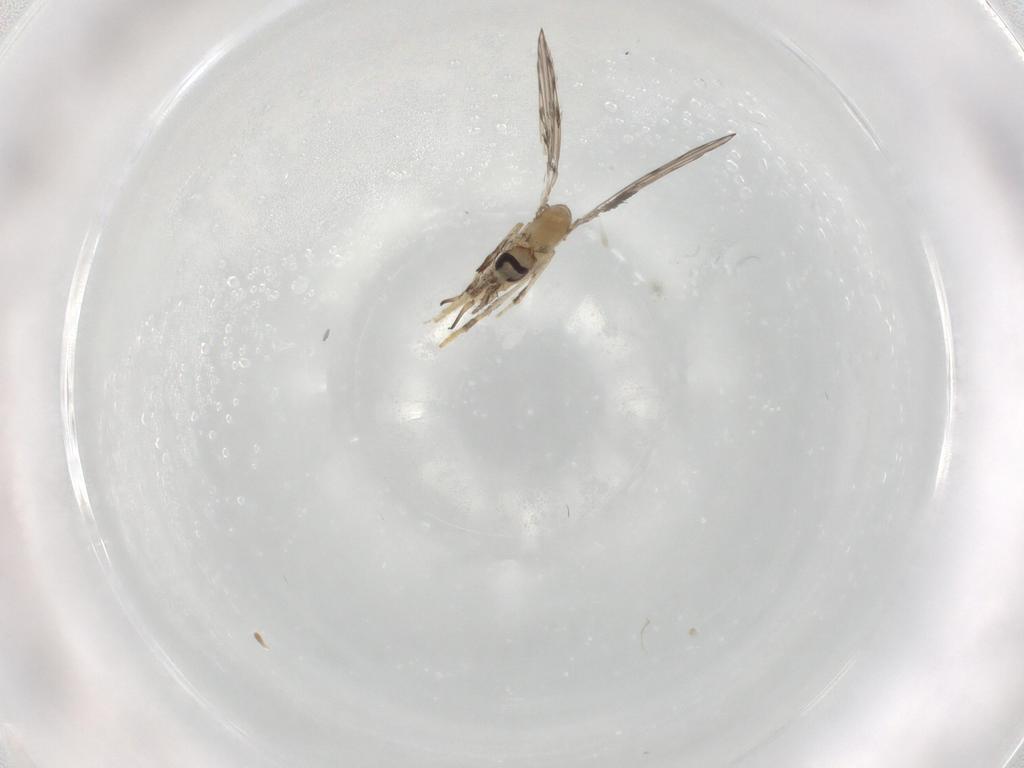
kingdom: Animalia
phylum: Arthropoda
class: Insecta
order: Diptera
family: Psychodidae
